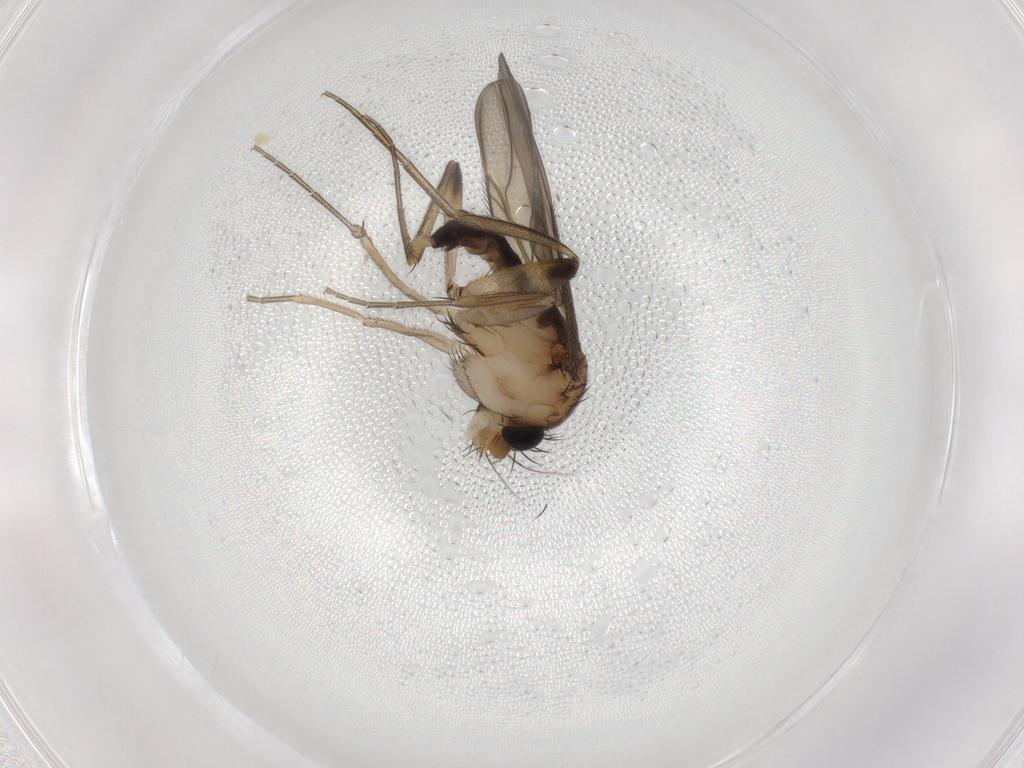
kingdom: Animalia
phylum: Arthropoda
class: Insecta
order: Diptera
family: Phoridae
